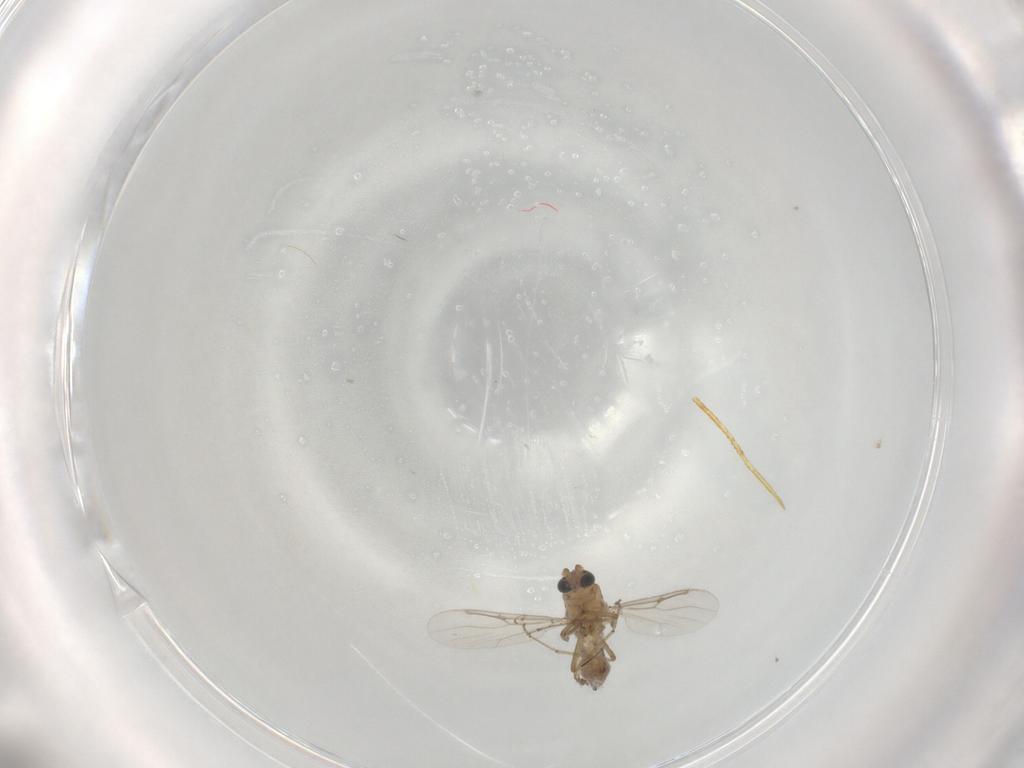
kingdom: Animalia
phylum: Arthropoda
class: Insecta
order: Diptera
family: Ceratopogonidae
